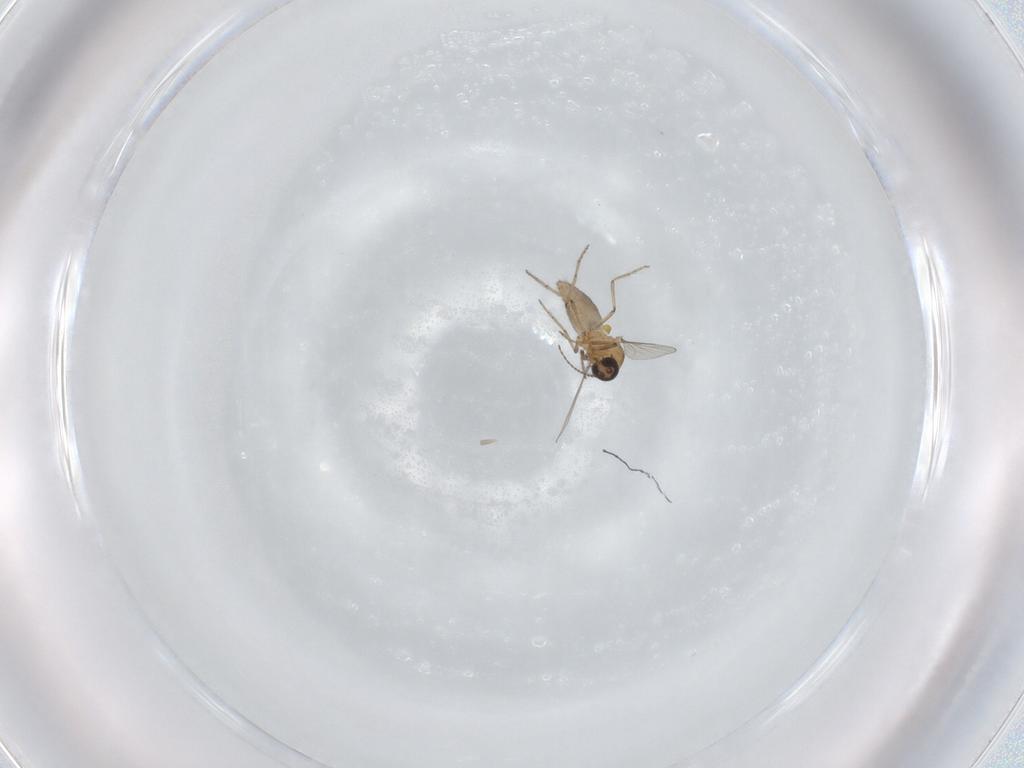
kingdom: Animalia
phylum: Arthropoda
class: Insecta
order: Diptera
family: Ceratopogonidae
